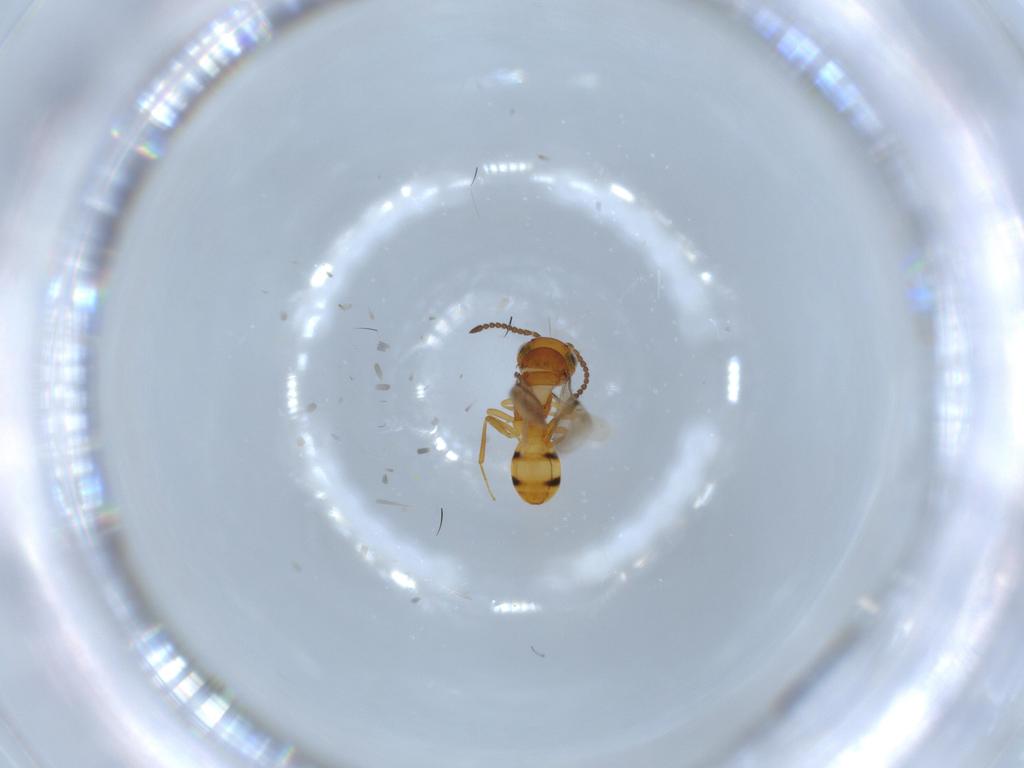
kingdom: Animalia
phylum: Arthropoda
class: Insecta
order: Hymenoptera
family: Scelionidae
